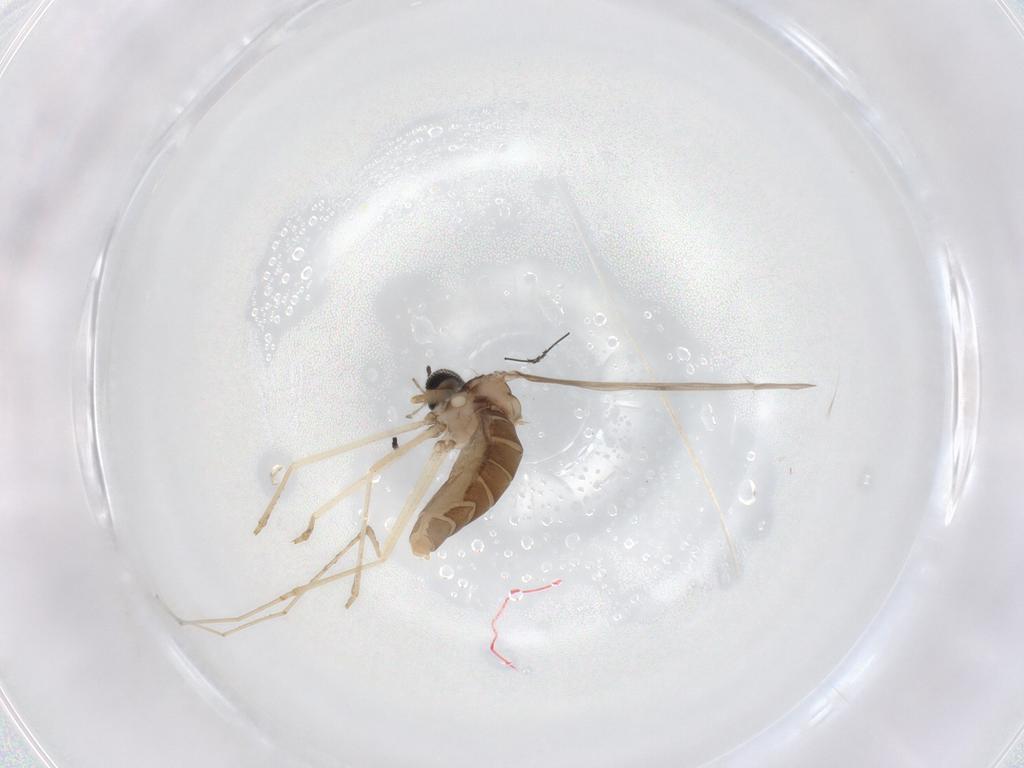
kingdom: Animalia
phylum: Arthropoda
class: Insecta
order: Diptera
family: Cecidomyiidae
